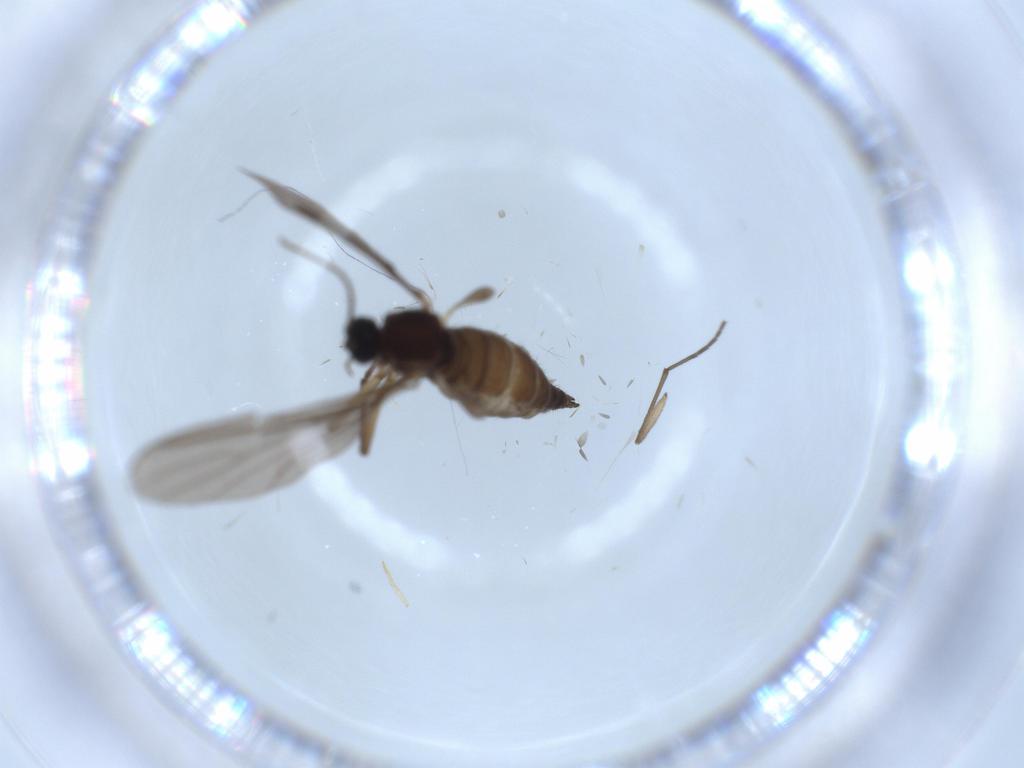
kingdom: Animalia
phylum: Arthropoda
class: Insecta
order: Diptera
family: Sciaridae
